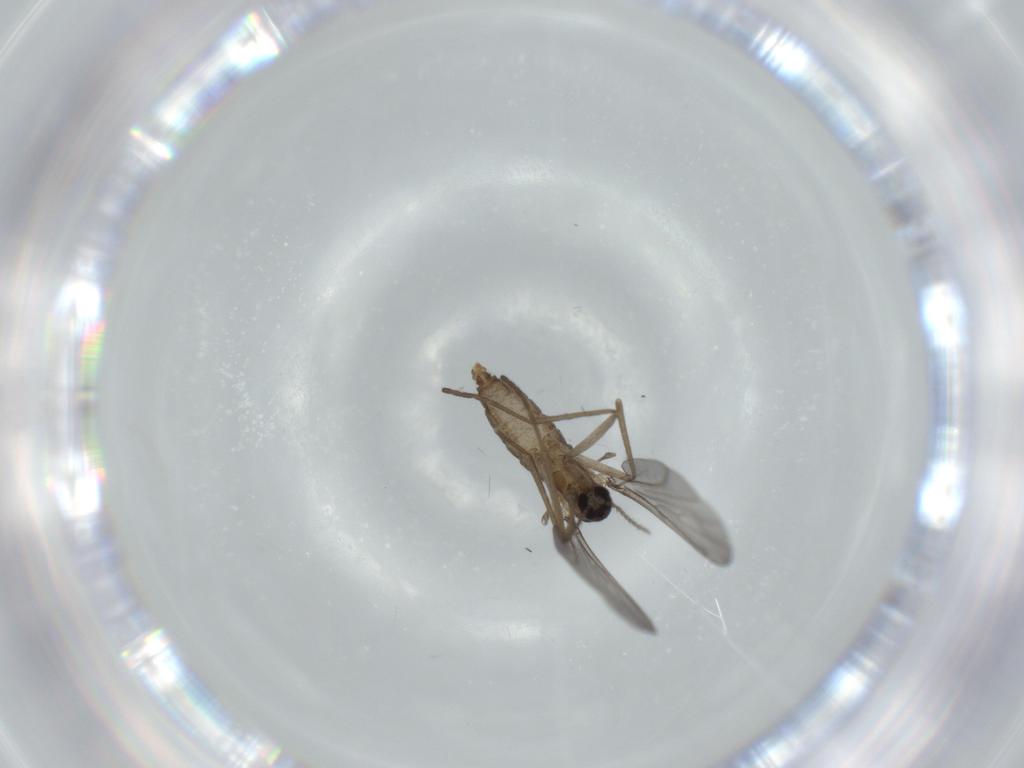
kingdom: Animalia
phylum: Arthropoda
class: Insecta
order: Diptera
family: Cecidomyiidae
